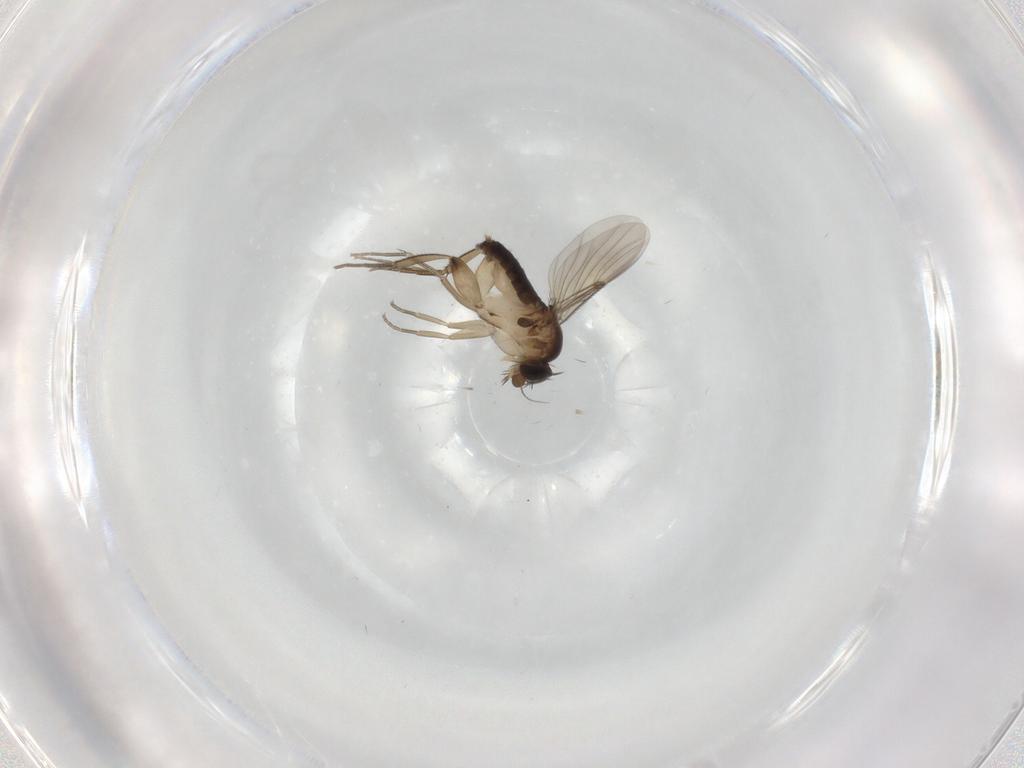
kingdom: Animalia
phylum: Arthropoda
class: Insecta
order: Diptera
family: Phoridae
